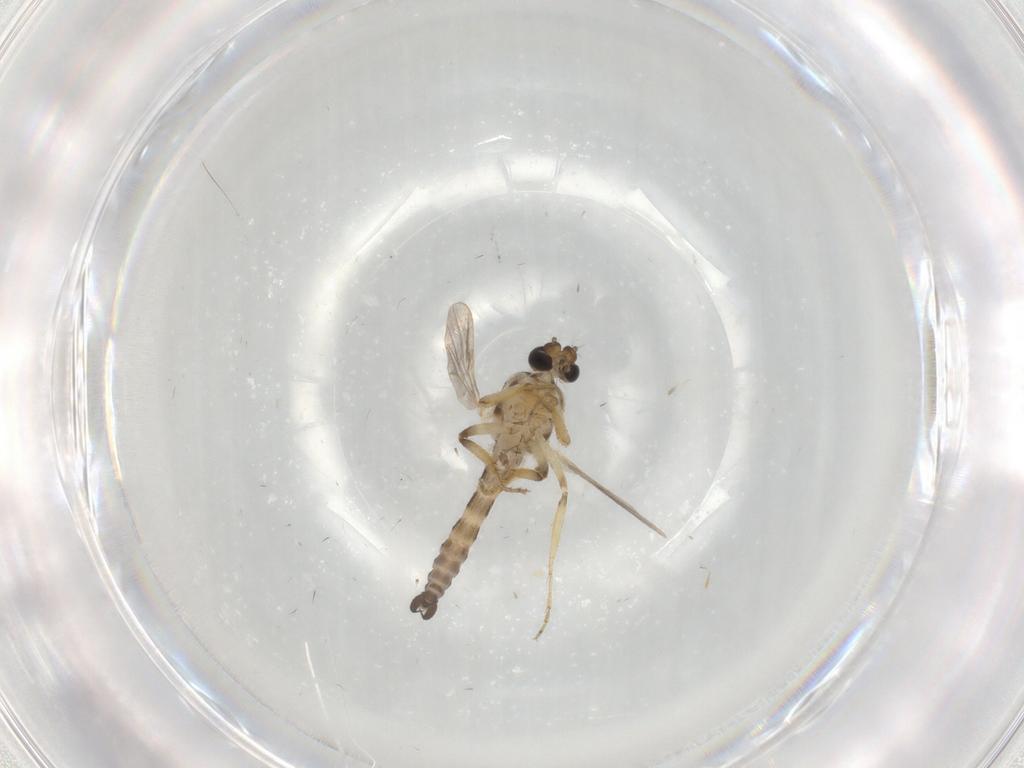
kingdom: Animalia
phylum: Arthropoda
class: Insecta
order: Diptera
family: Ceratopogonidae
